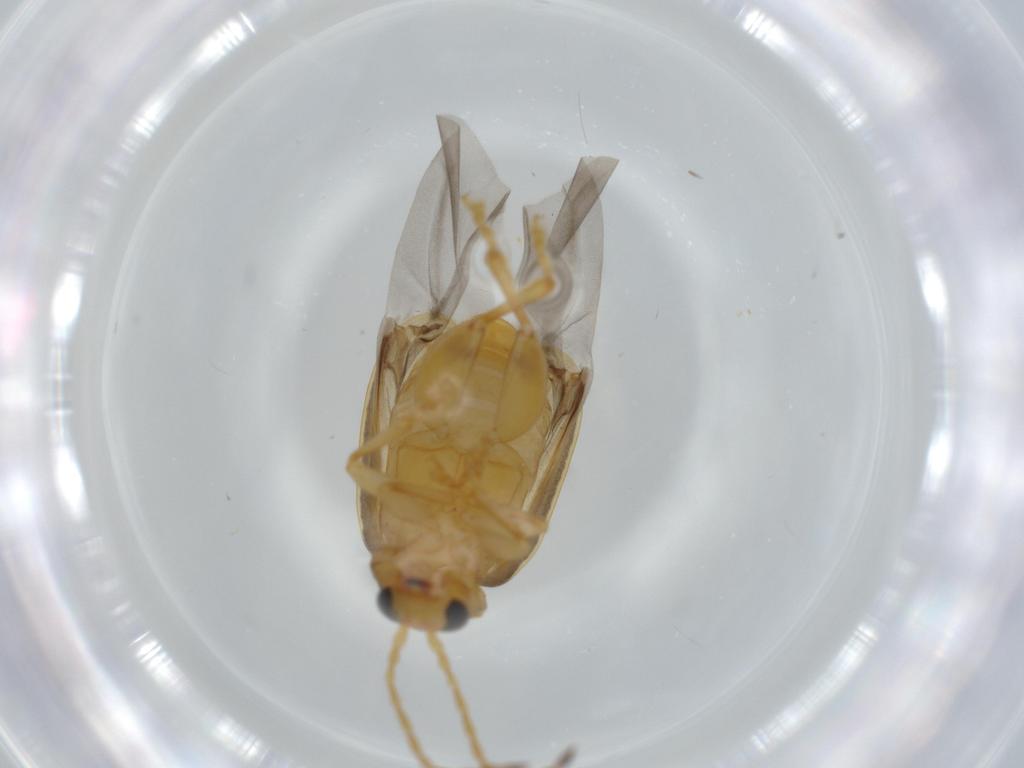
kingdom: Animalia
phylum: Arthropoda
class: Insecta
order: Coleoptera
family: Chrysomelidae
